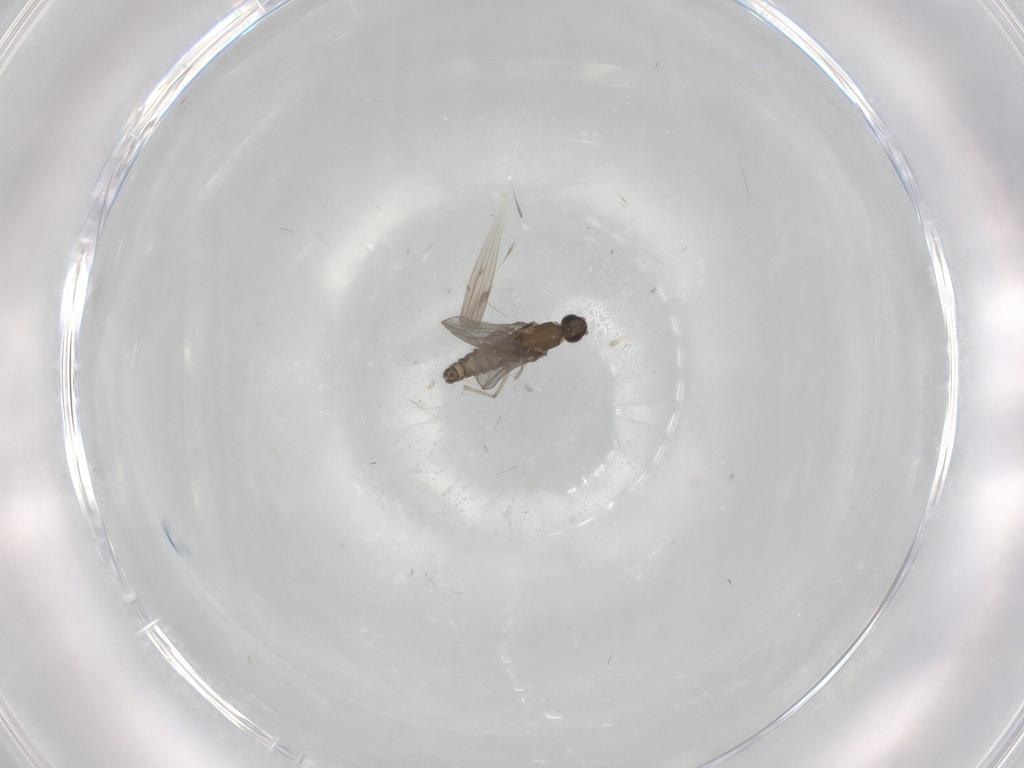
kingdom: Animalia
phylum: Arthropoda
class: Insecta
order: Diptera
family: Cecidomyiidae
